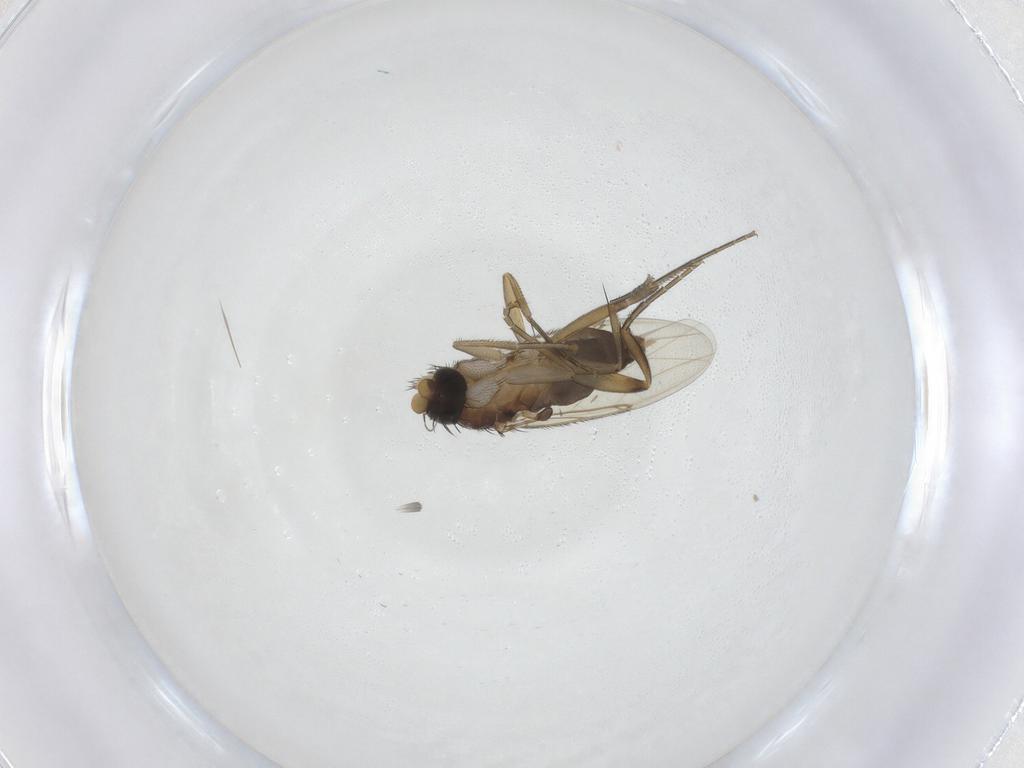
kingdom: Animalia
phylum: Arthropoda
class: Insecta
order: Diptera
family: Phoridae
